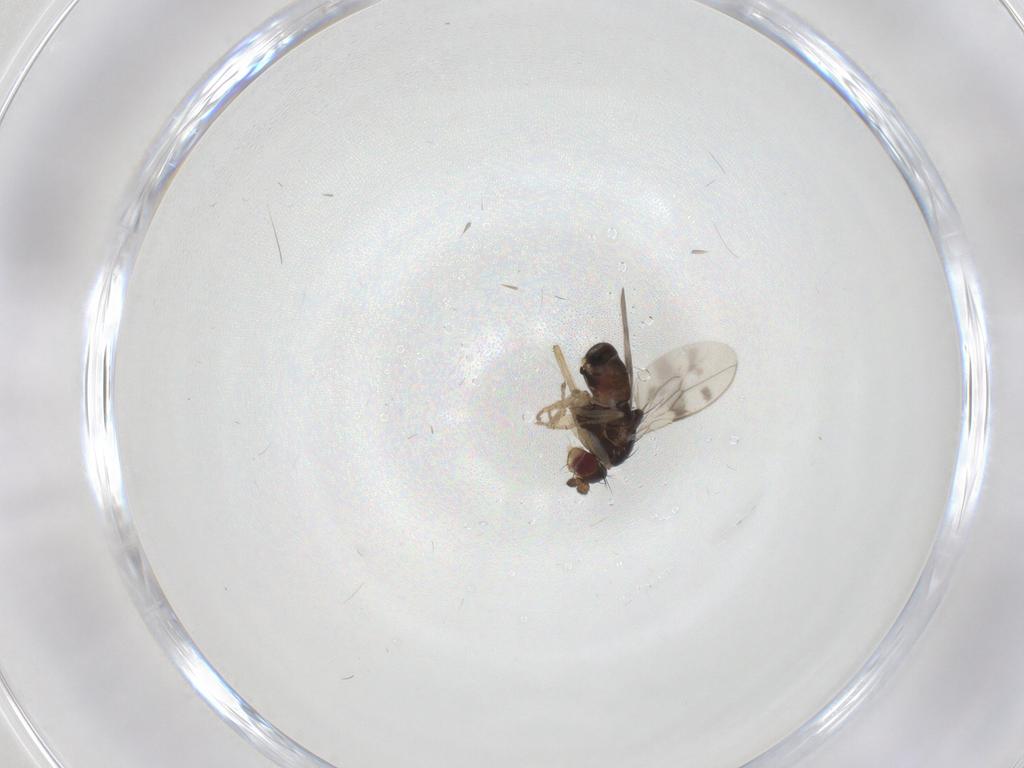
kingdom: Animalia
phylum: Arthropoda
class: Insecta
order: Diptera
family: Sphaeroceridae
